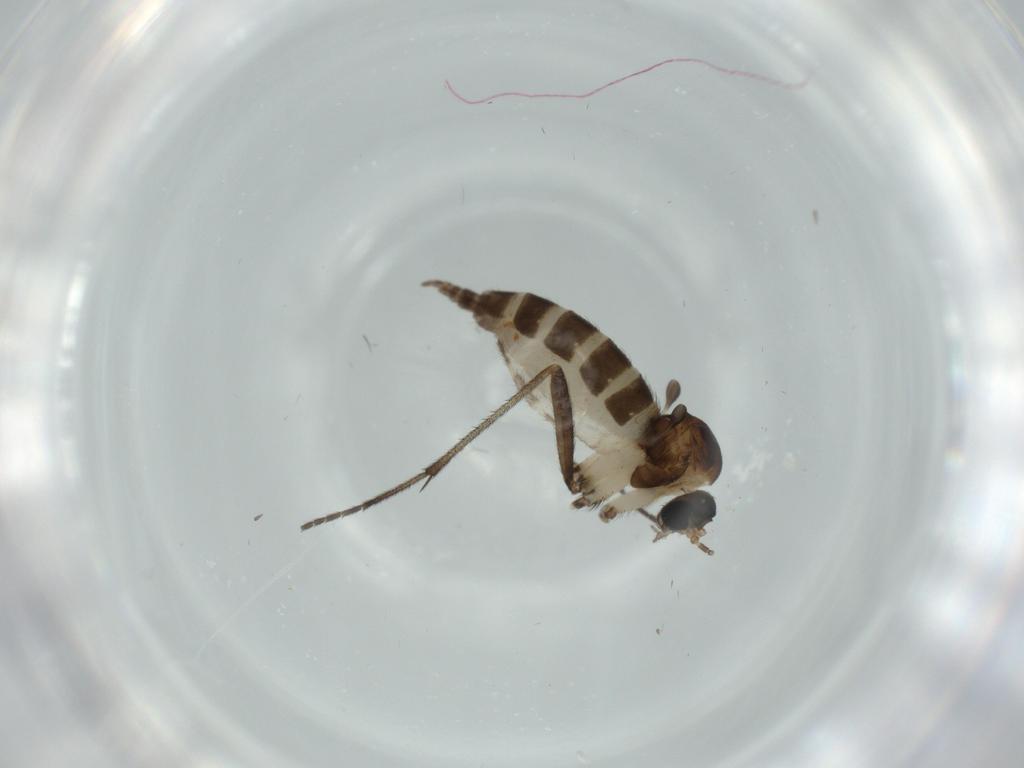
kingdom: Animalia
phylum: Arthropoda
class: Insecta
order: Diptera
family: Sciaridae
